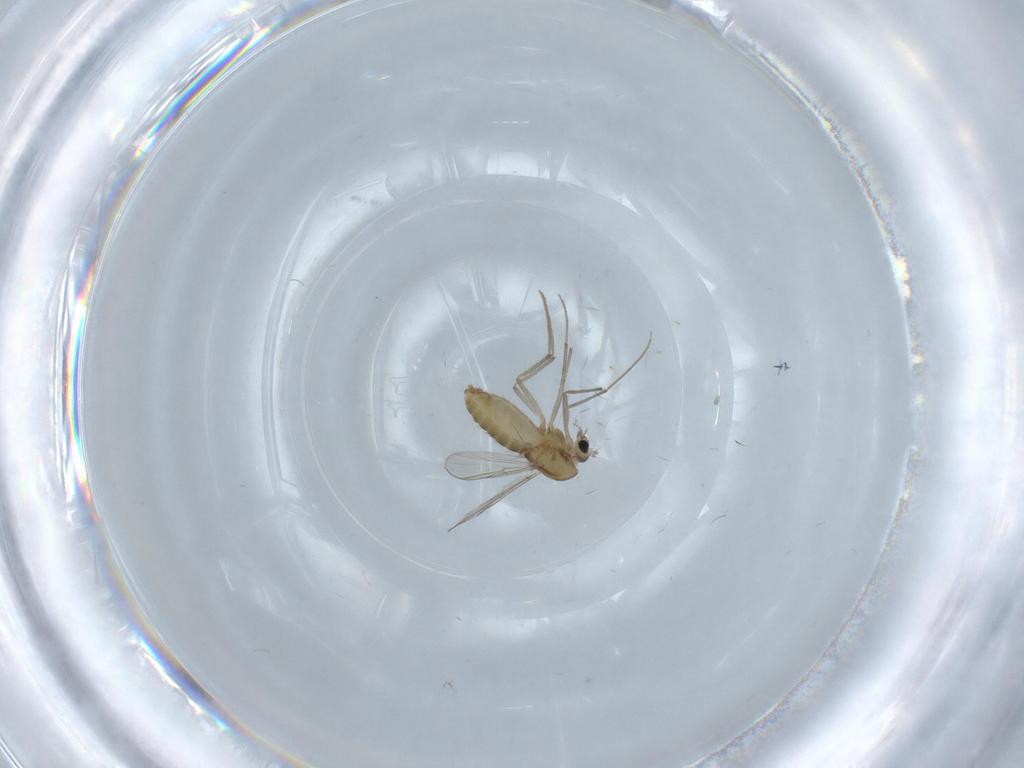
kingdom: Animalia
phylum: Arthropoda
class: Insecta
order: Diptera
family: Chironomidae
